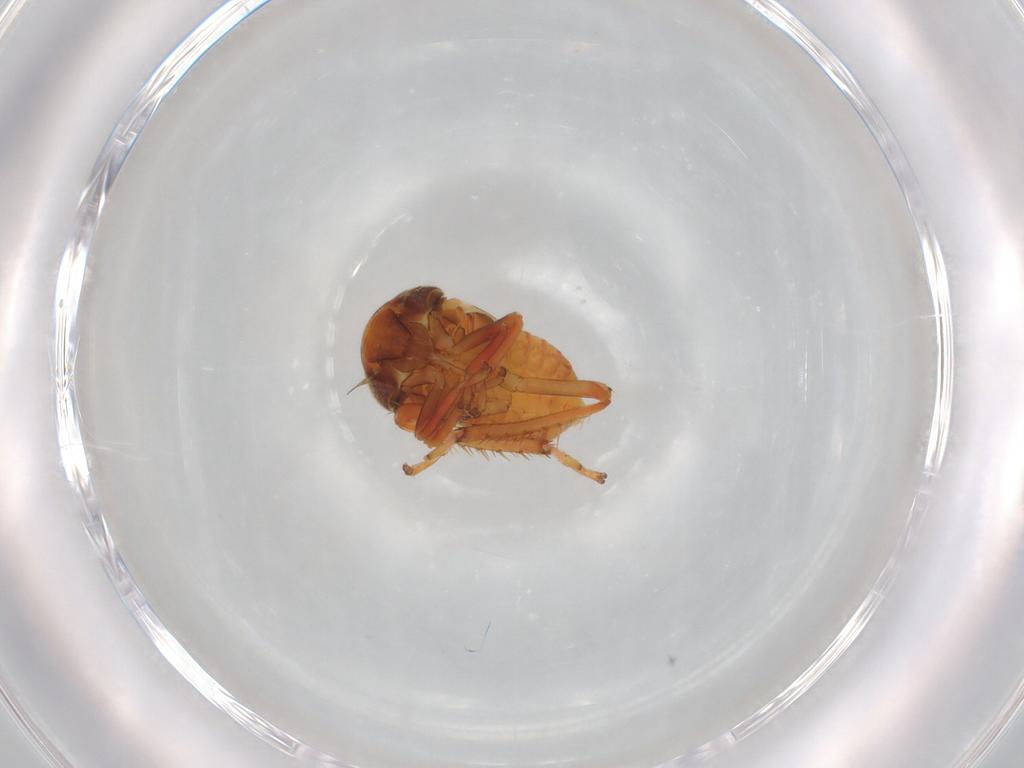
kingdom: Animalia
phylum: Arthropoda
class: Insecta
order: Hemiptera
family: Cicadellidae
